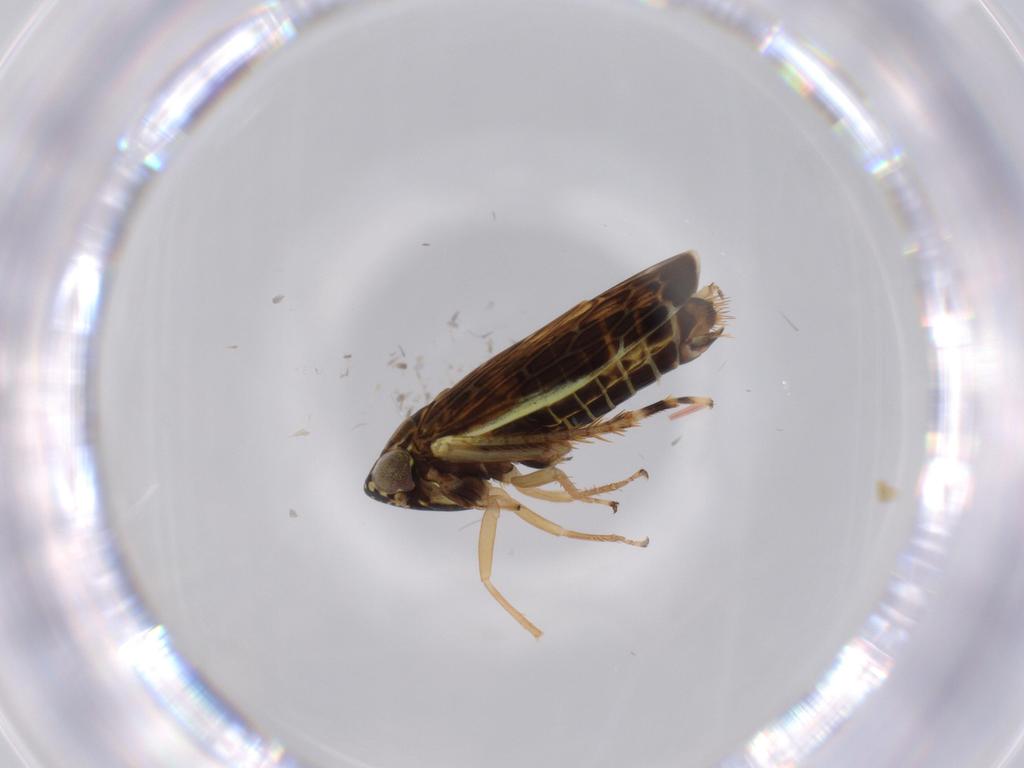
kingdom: Animalia
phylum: Arthropoda
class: Insecta
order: Hemiptera
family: Cicadellidae
